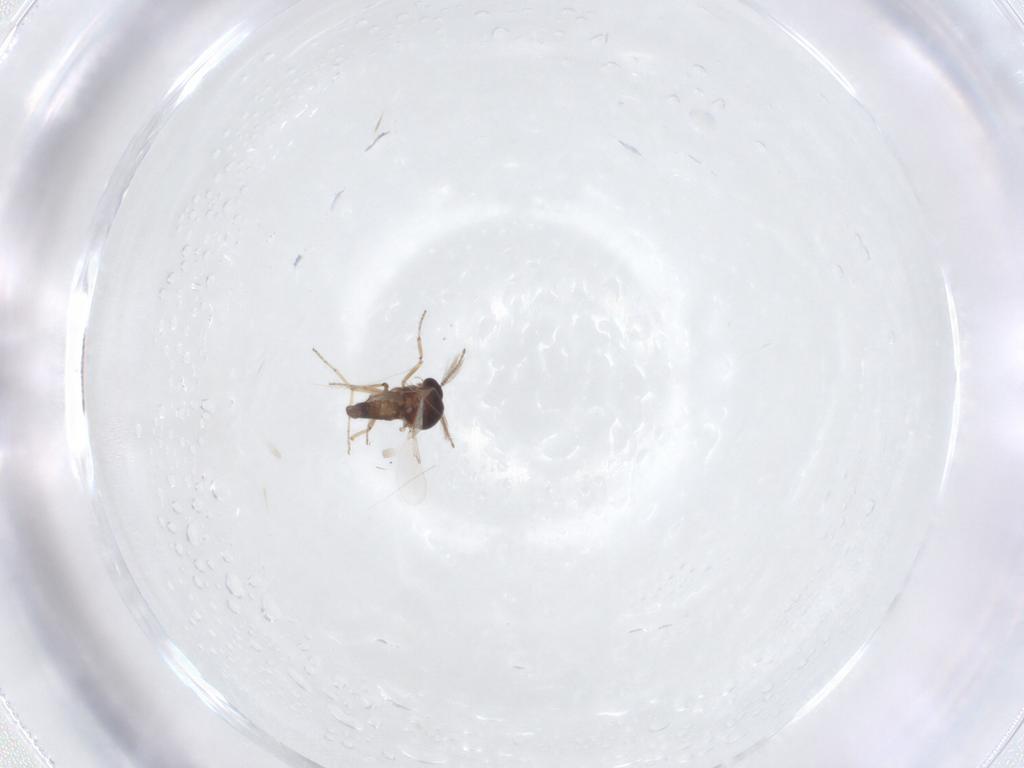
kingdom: Animalia
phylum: Arthropoda
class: Insecta
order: Diptera
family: Ceratopogonidae
